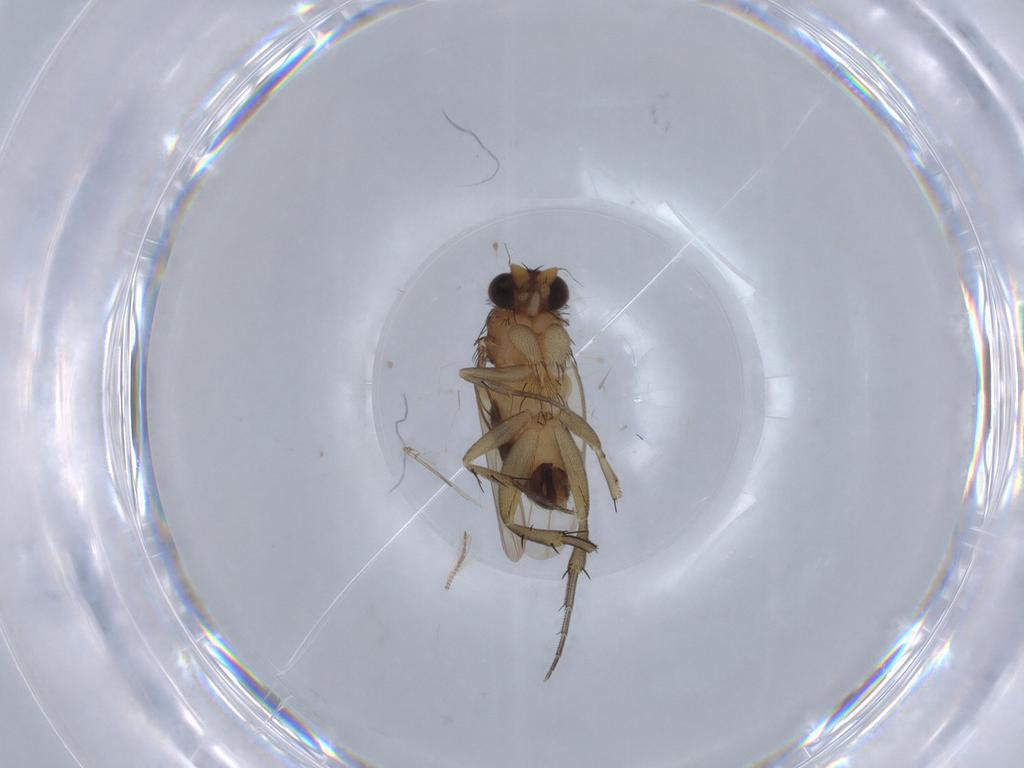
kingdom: Animalia
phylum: Arthropoda
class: Insecta
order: Diptera
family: Phoridae
